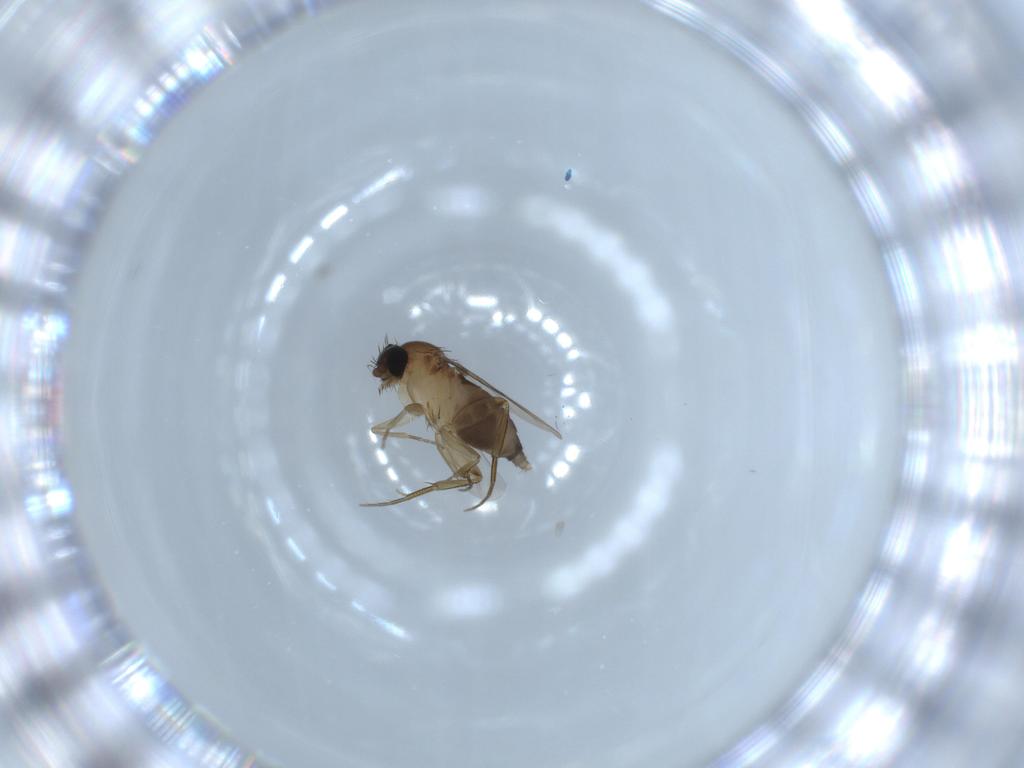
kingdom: Animalia
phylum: Arthropoda
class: Insecta
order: Diptera
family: Phoridae
